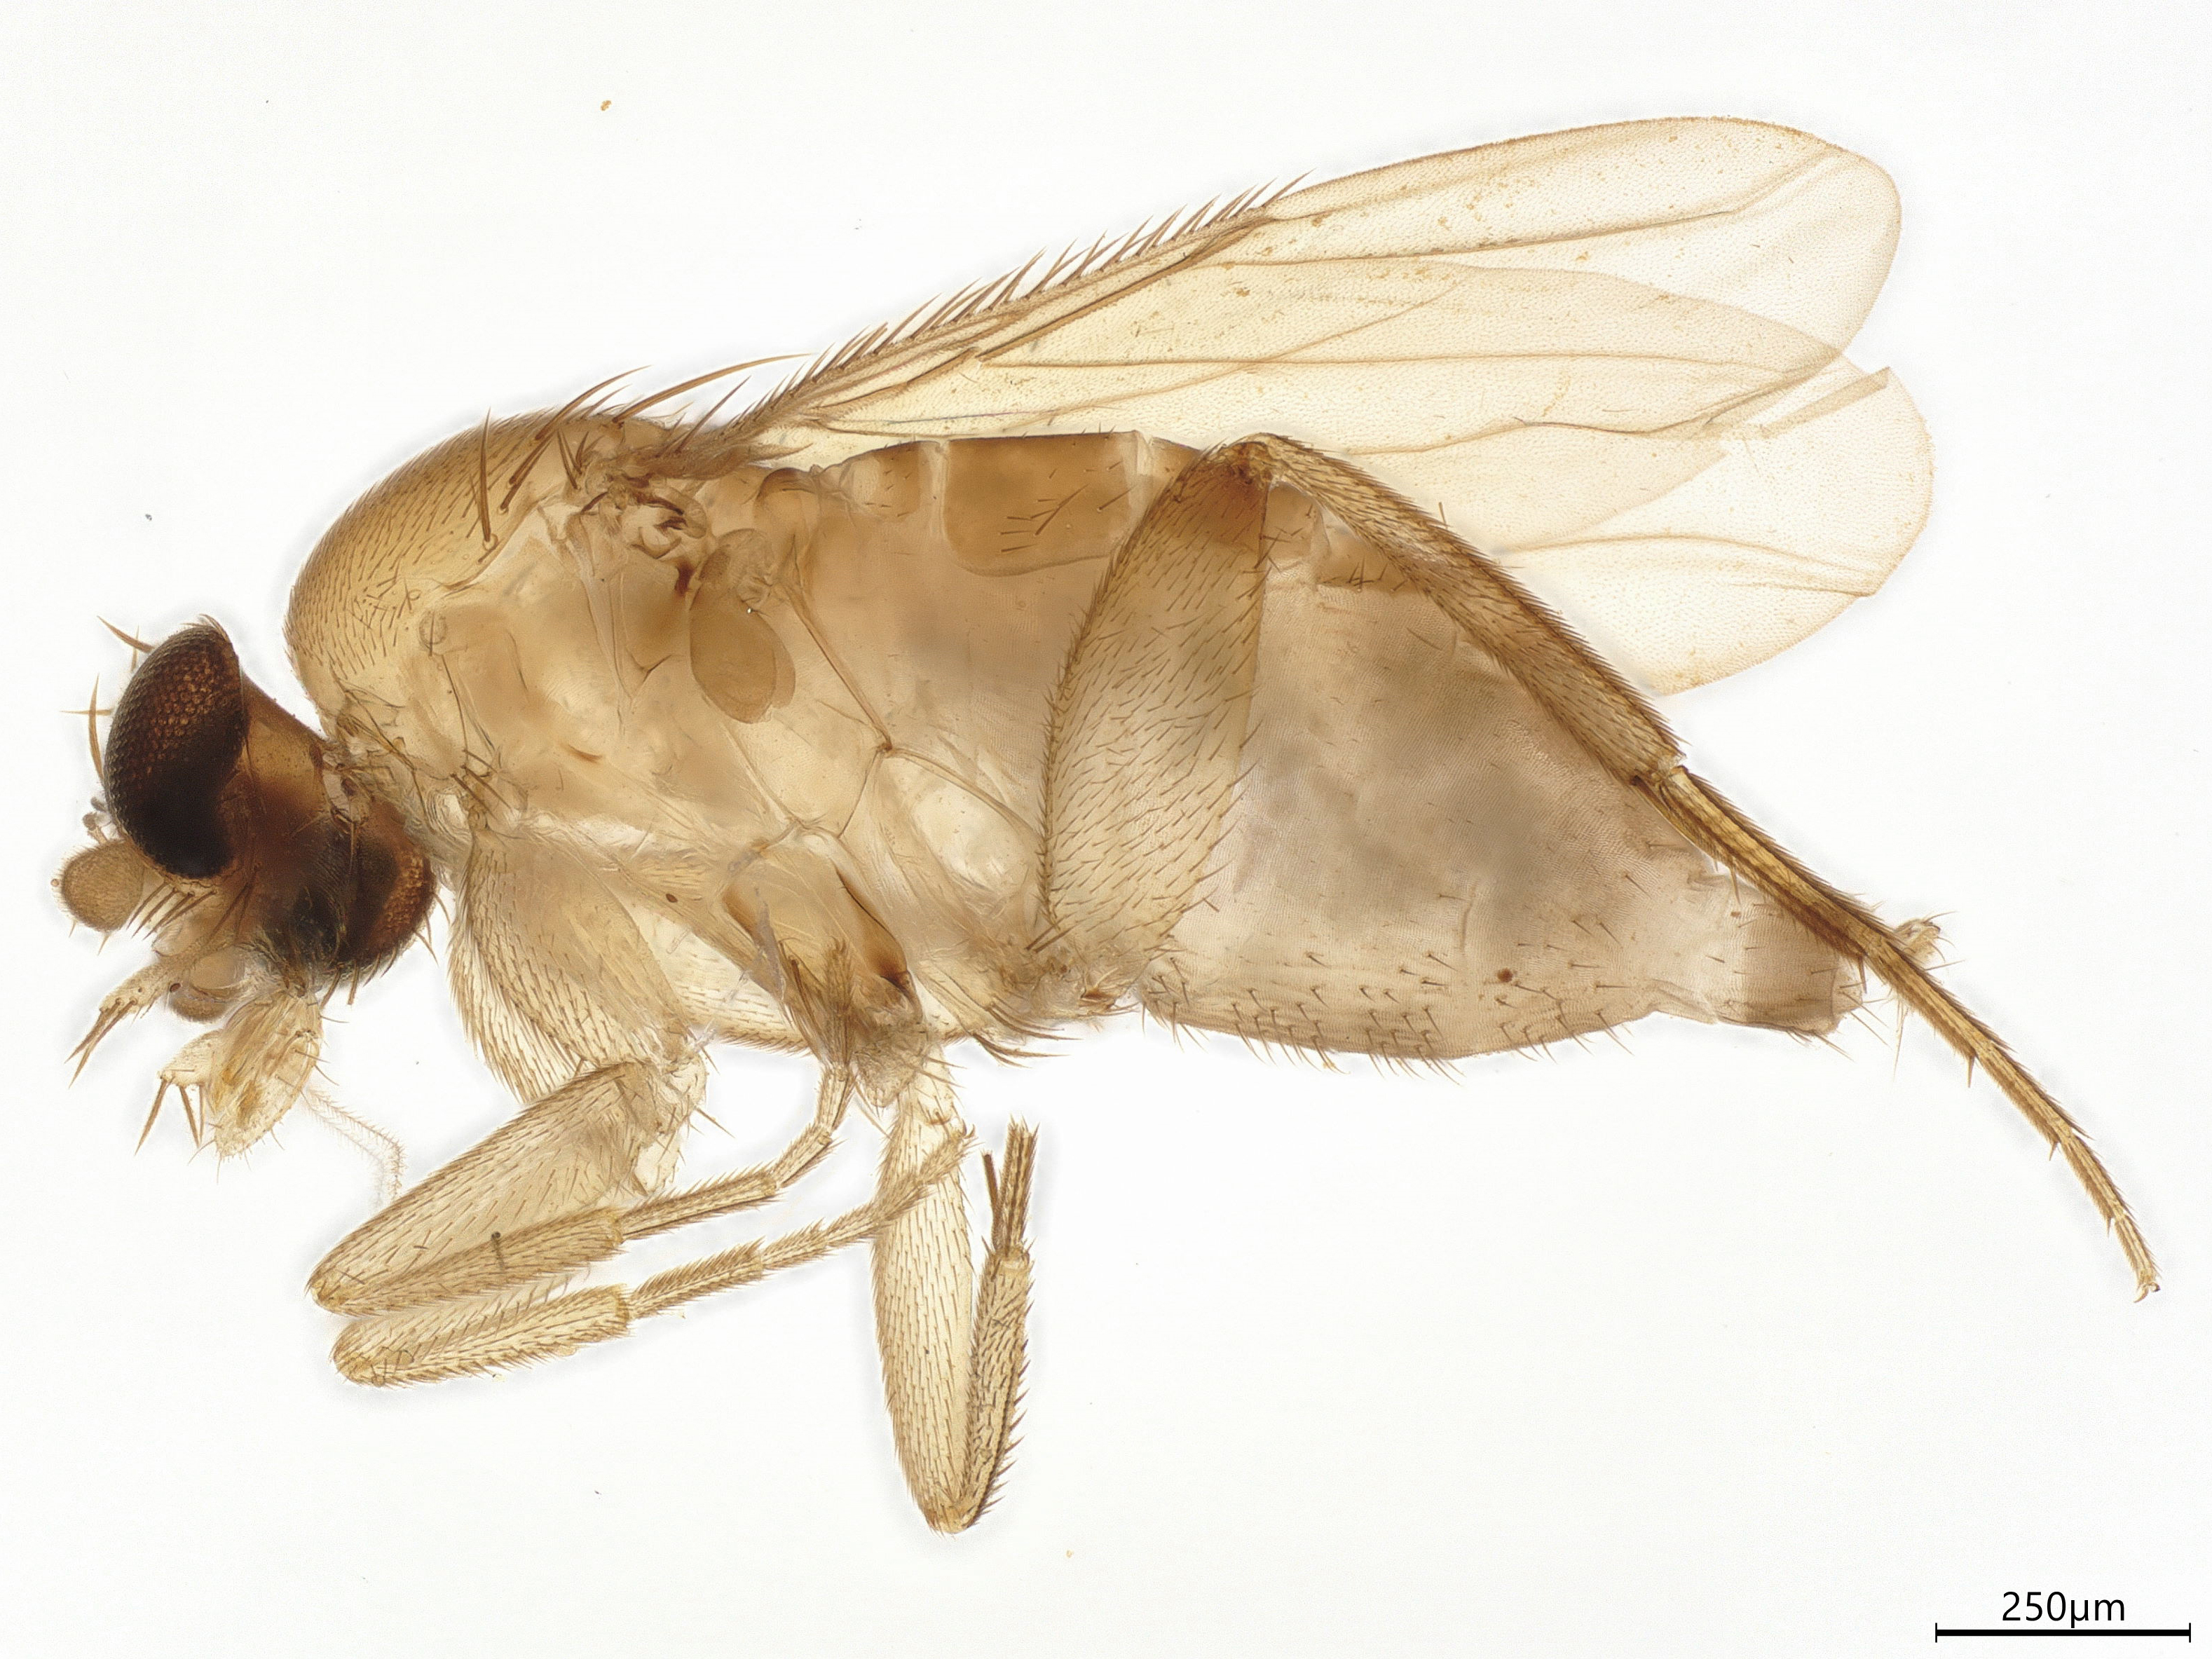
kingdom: Animalia
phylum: Arthropoda
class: Insecta
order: Diptera
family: Phoridae
